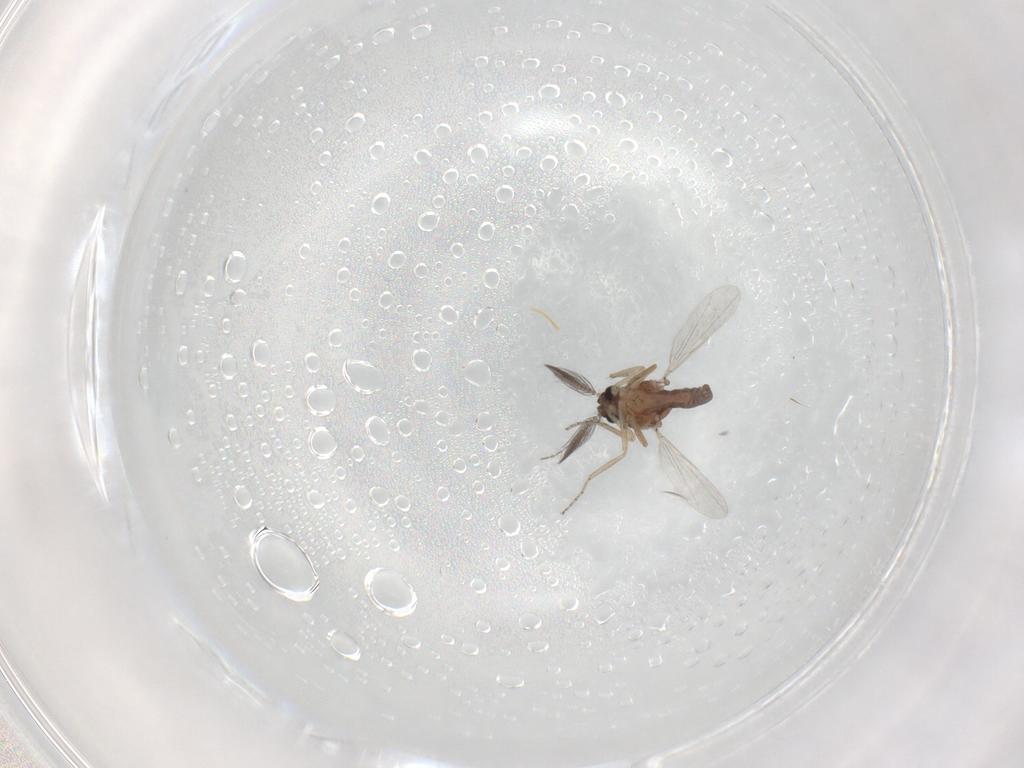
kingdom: Animalia
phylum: Arthropoda
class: Insecta
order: Diptera
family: Ceratopogonidae
